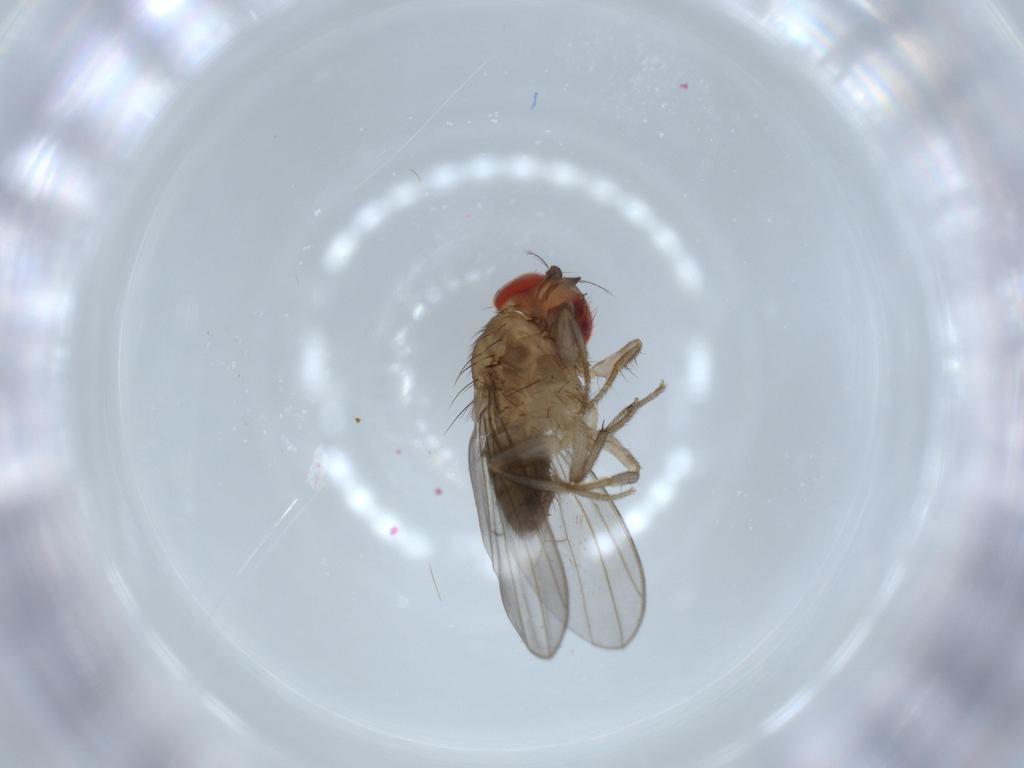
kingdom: Animalia
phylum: Arthropoda
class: Insecta
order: Diptera
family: Drosophilidae
